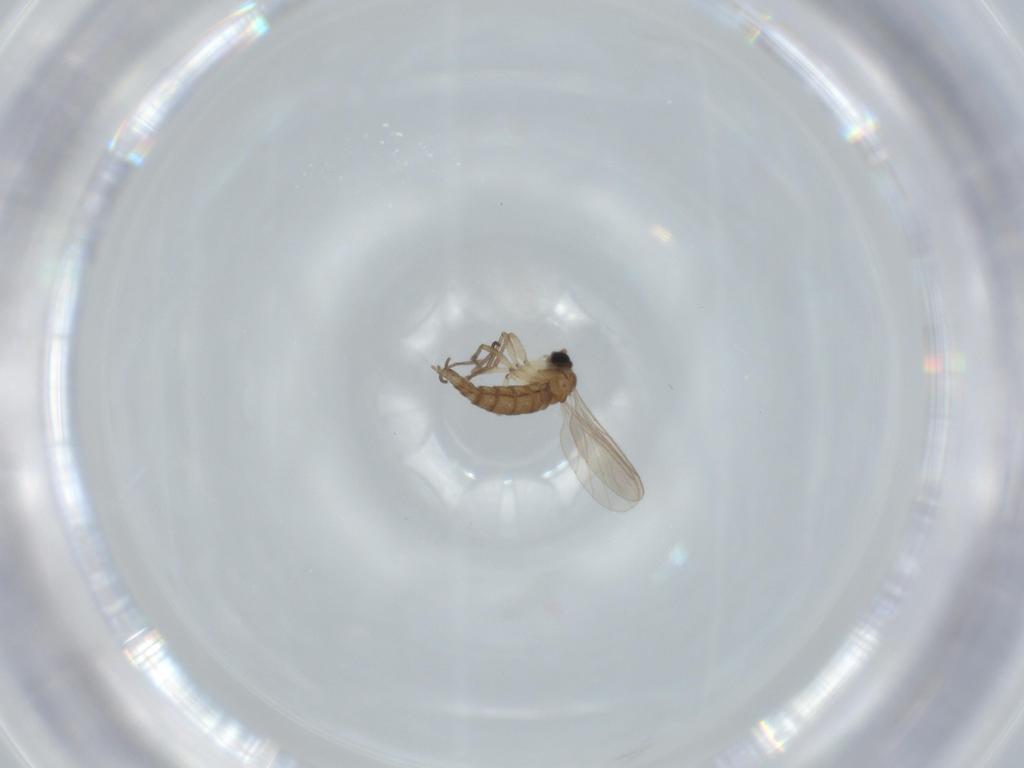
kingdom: Animalia
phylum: Arthropoda
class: Insecta
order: Diptera
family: Sciaridae
